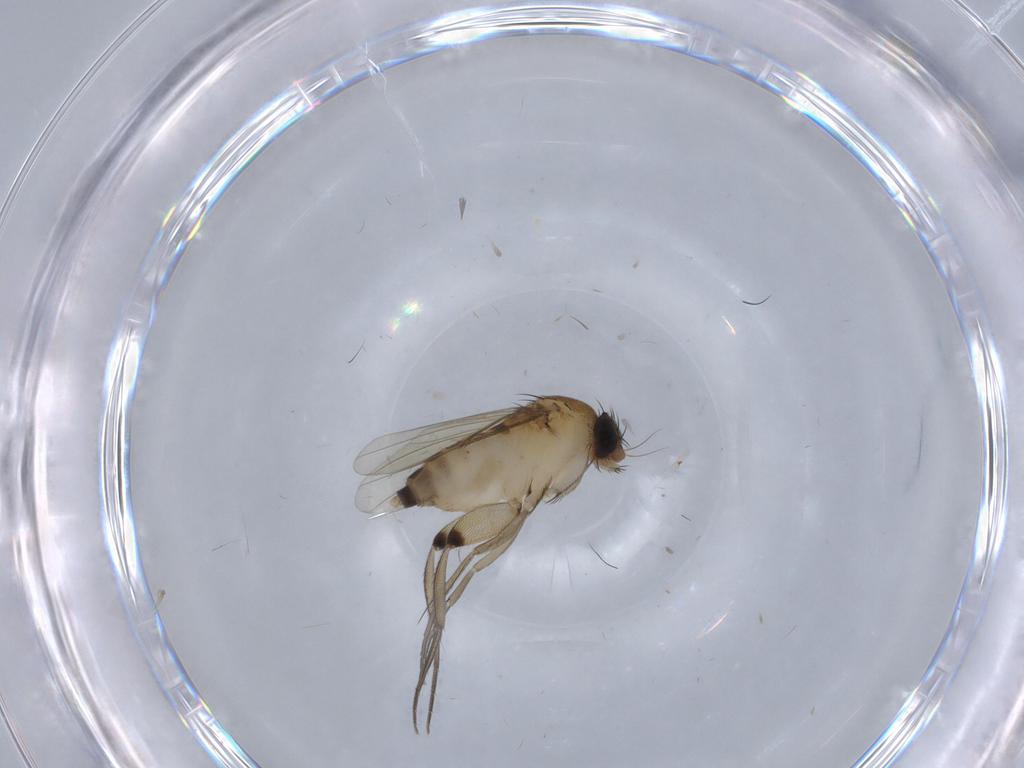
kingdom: Animalia
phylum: Arthropoda
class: Insecta
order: Diptera
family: Phoridae
